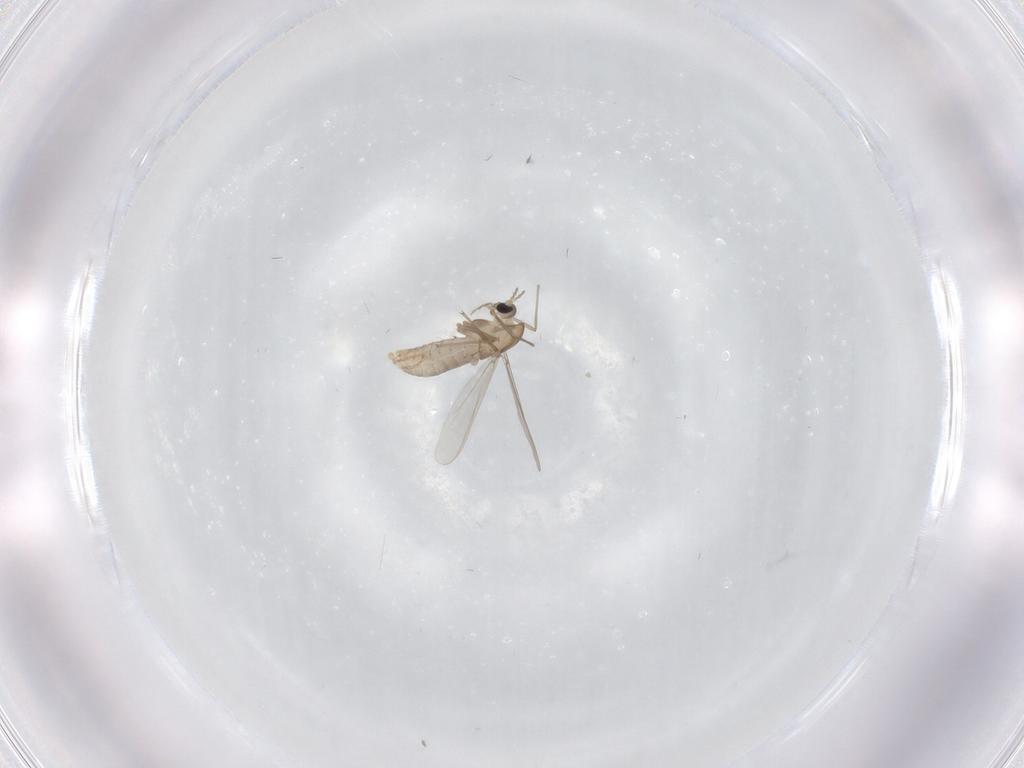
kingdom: Animalia
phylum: Arthropoda
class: Insecta
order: Diptera
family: Chironomidae
